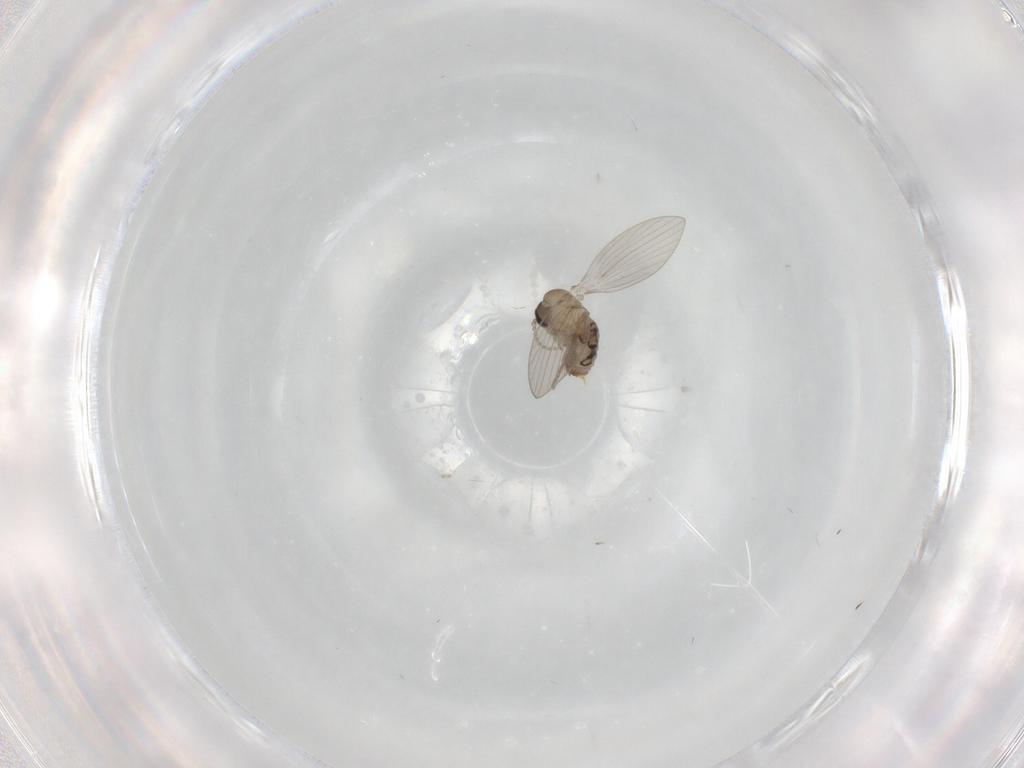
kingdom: Animalia
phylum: Arthropoda
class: Insecta
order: Diptera
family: Psychodidae
